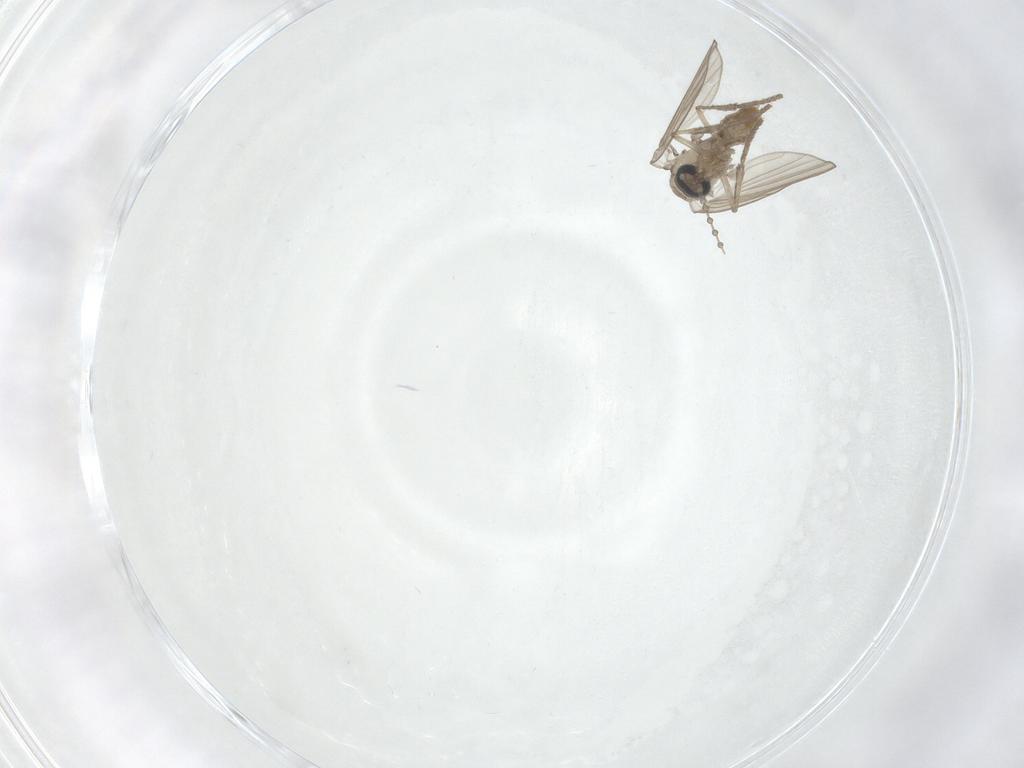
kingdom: Animalia
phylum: Arthropoda
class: Insecta
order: Diptera
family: Psychodidae
